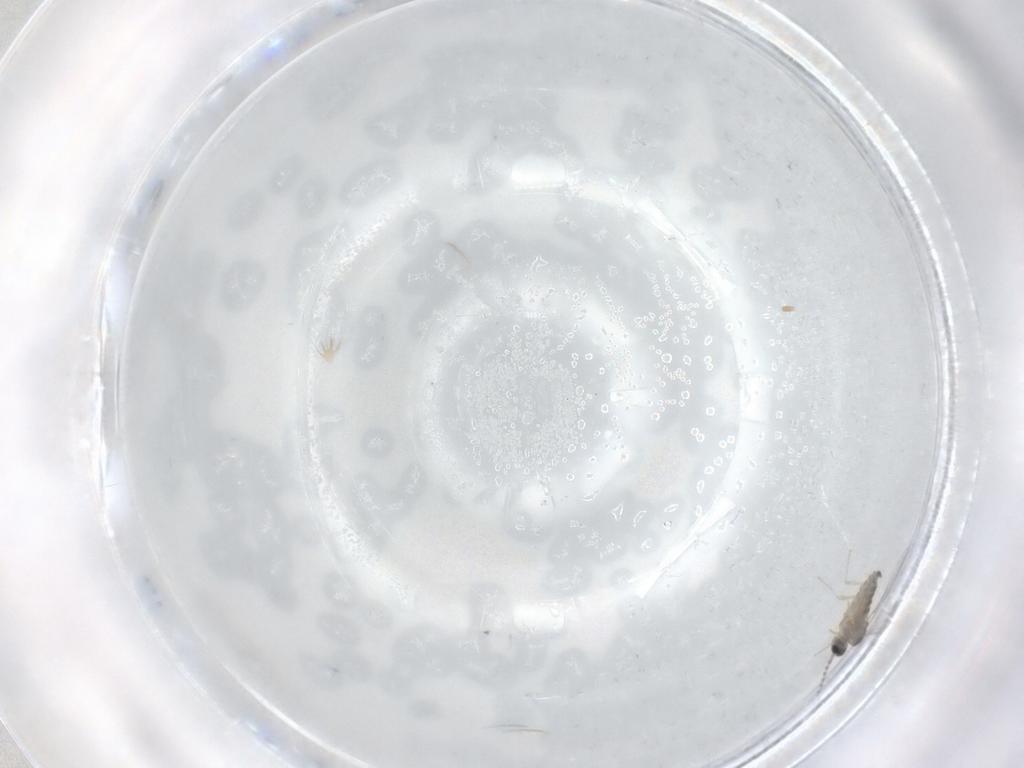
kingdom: Animalia
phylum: Arthropoda
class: Insecta
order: Diptera
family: Cecidomyiidae
